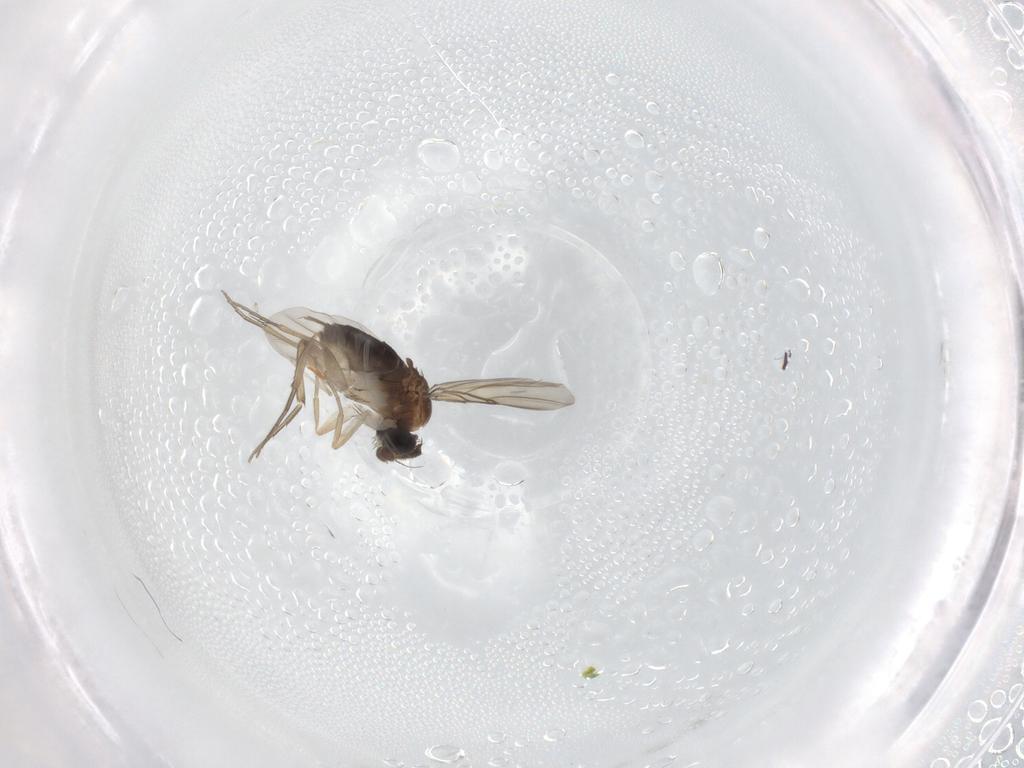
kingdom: Animalia
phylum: Arthropoda
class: Insecta
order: Diptera
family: Phoridae
